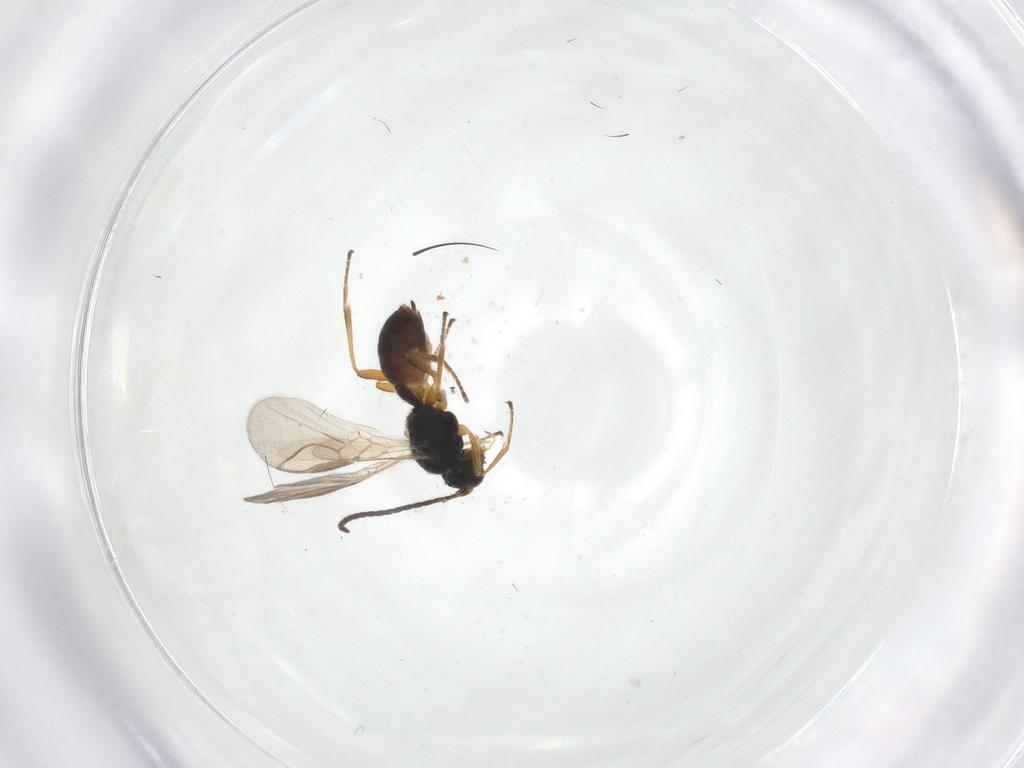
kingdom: Animalia
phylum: Arthropoda
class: Insecta
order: Hymenoptera
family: Braconidae
